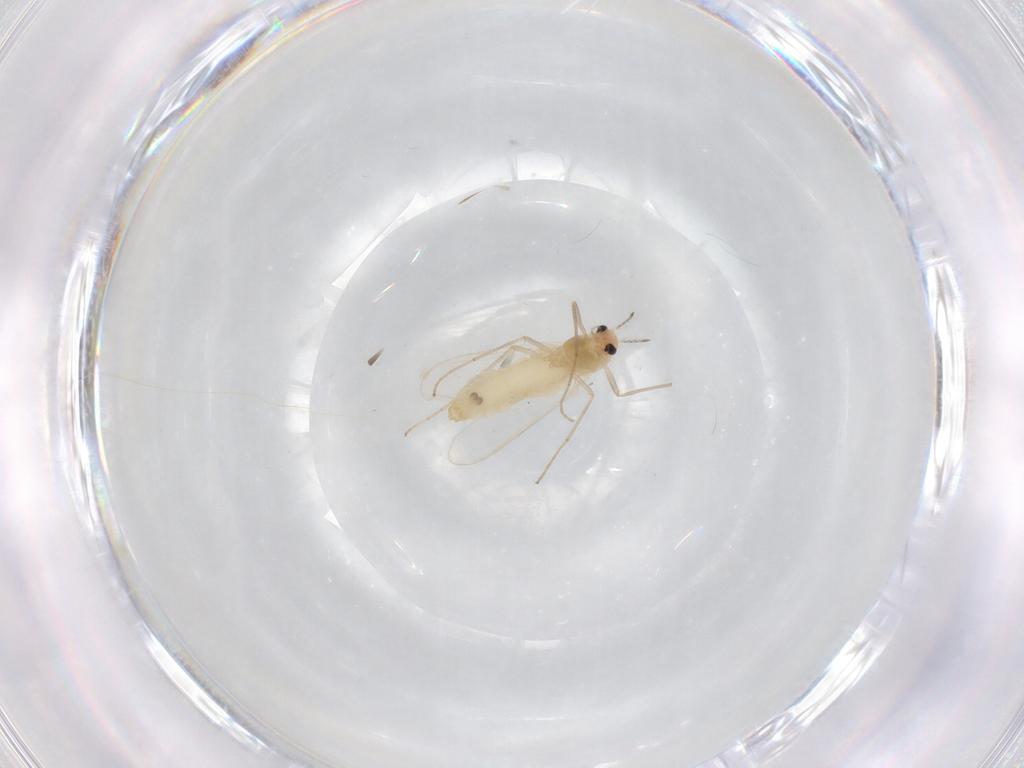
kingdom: Animalia
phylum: Arthropoda
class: Insecta
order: Diptera
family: Chironomidae
